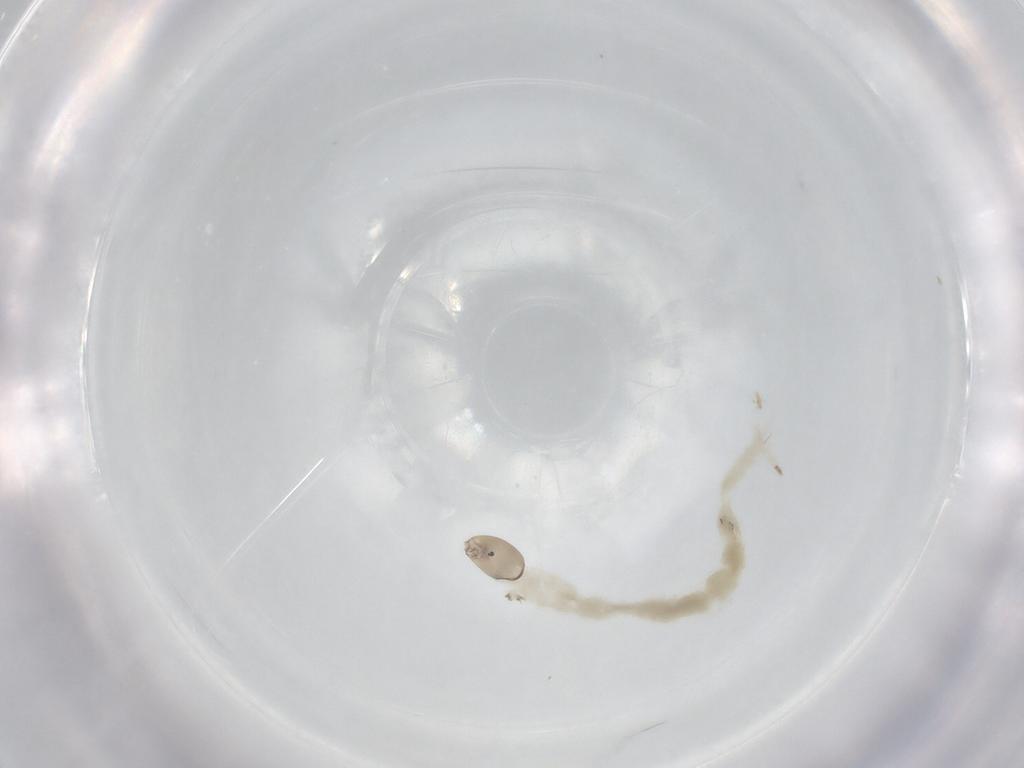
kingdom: Animalia
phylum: Arthropoda
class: Insecta
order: Diptera
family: Chironomidae
